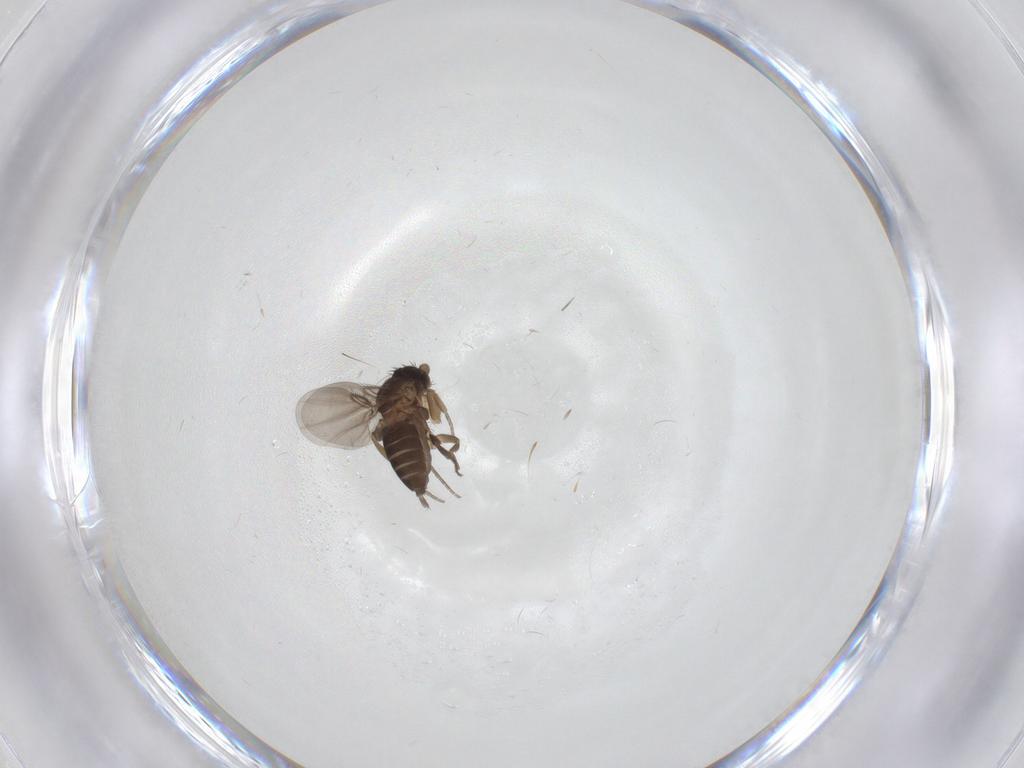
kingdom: Animalia
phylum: Arthropoda
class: Insecta
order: Diptera
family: Phoridae
